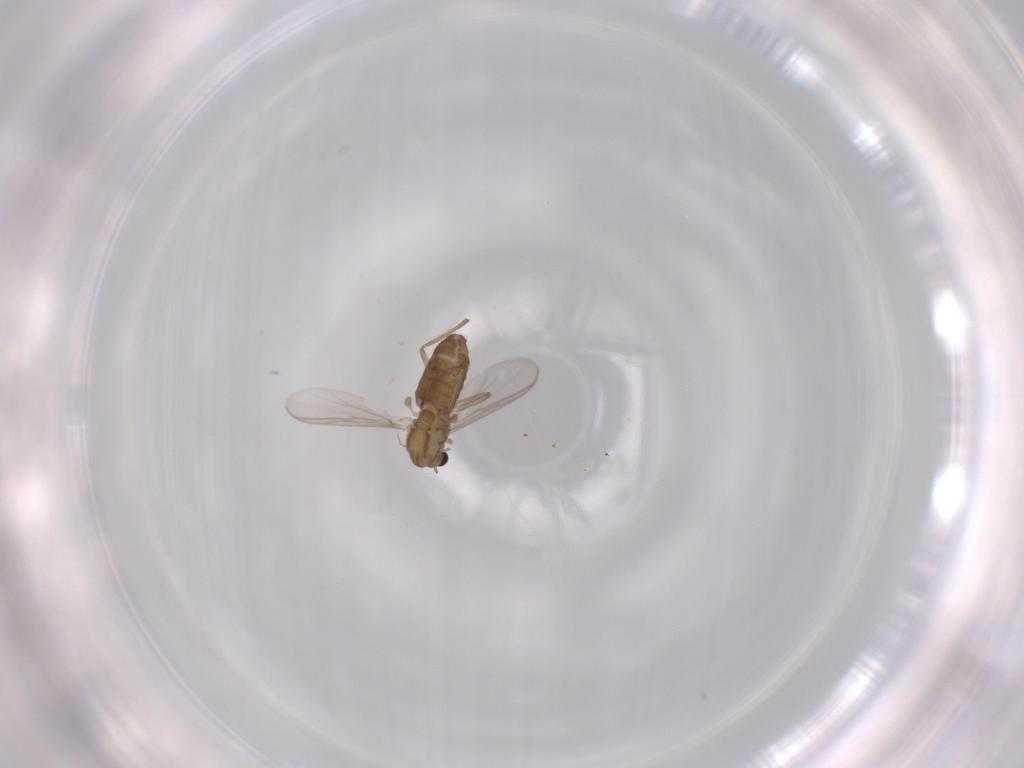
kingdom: Animalia
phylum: Arthropoda
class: Insecta
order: Diptera
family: Chironomidae
